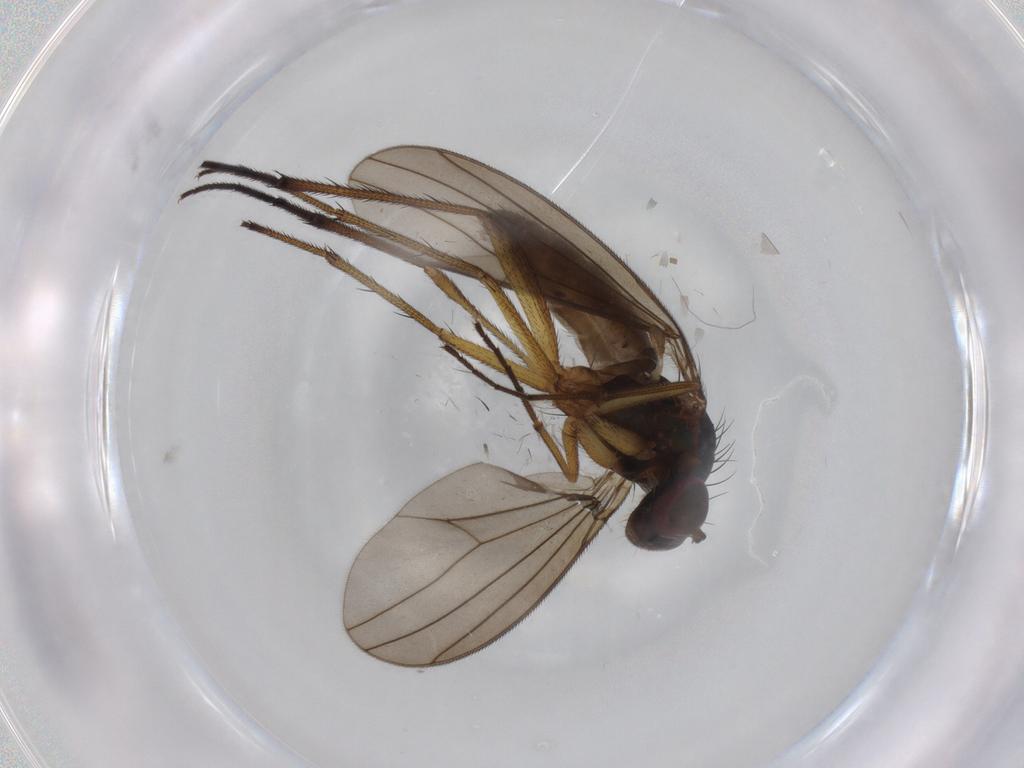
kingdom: Animalia
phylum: Arthropoda
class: Insecta
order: Diptera
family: Dolichopodidae
